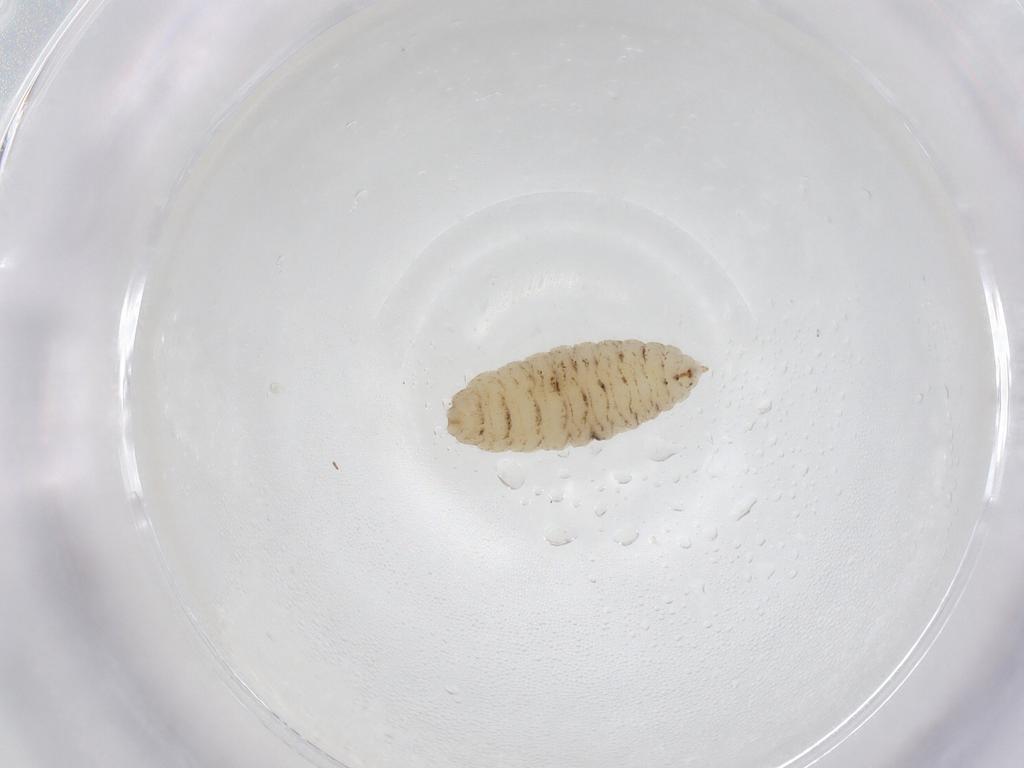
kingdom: Animalia
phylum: Arthropoda
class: Insecta
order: Diptera
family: Cecidomyiidae
